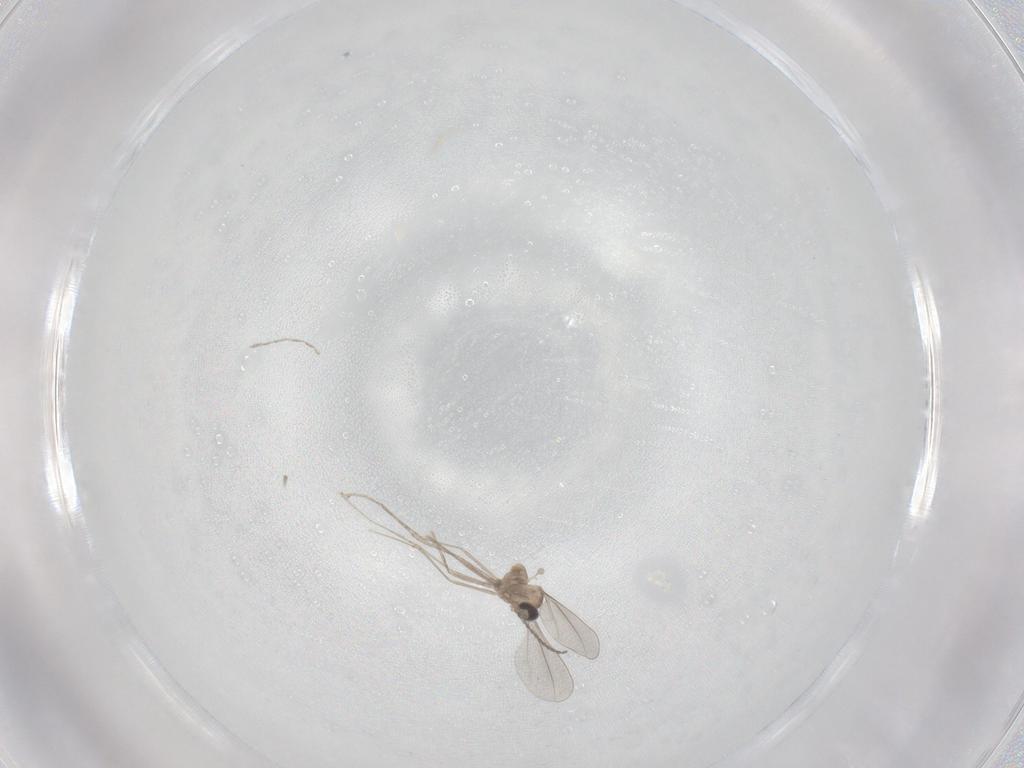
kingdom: Animalia
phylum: Arthropoda
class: Insecta
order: Diptera
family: Cecidomyiidae
